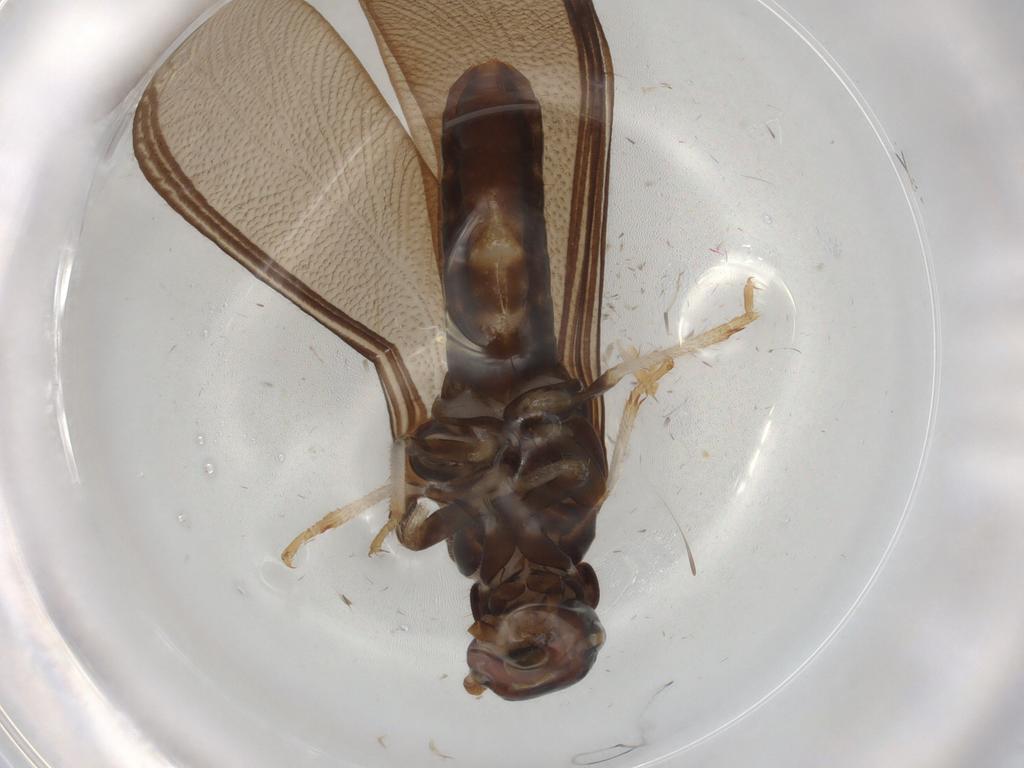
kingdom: Animalia
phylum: Arthropoda
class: Insecta
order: Blattodea
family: Kalotermitidae
